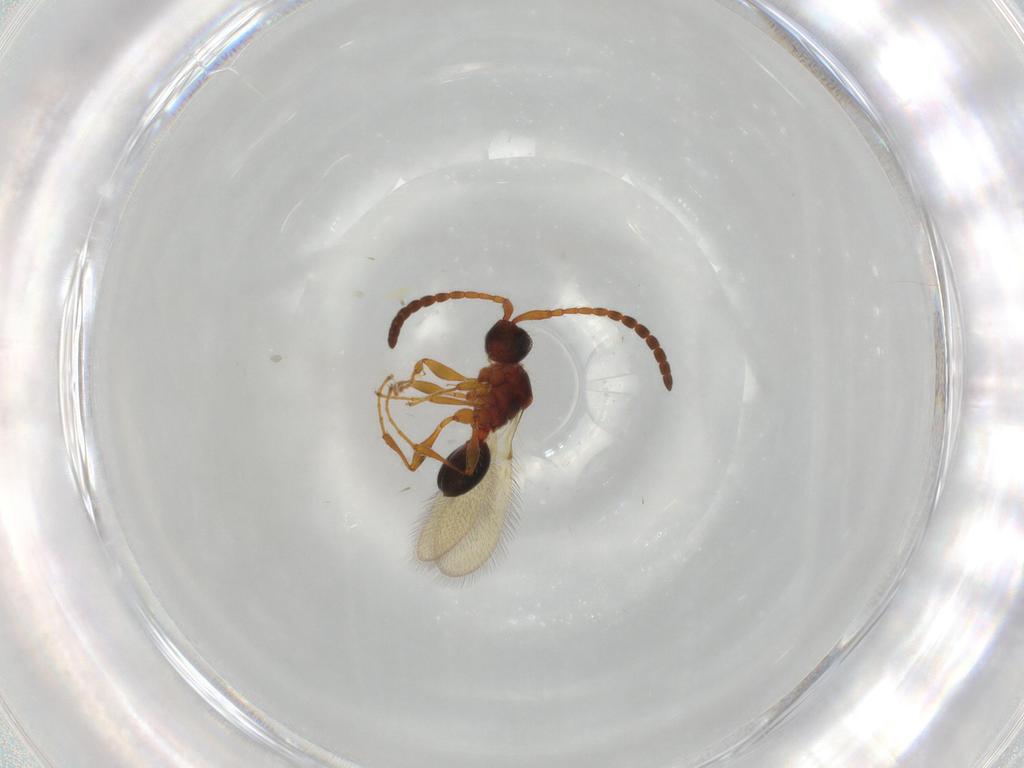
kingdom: Animalia
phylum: Arthropoda
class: Insecta
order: Hymenoptera
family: Diapriidae
